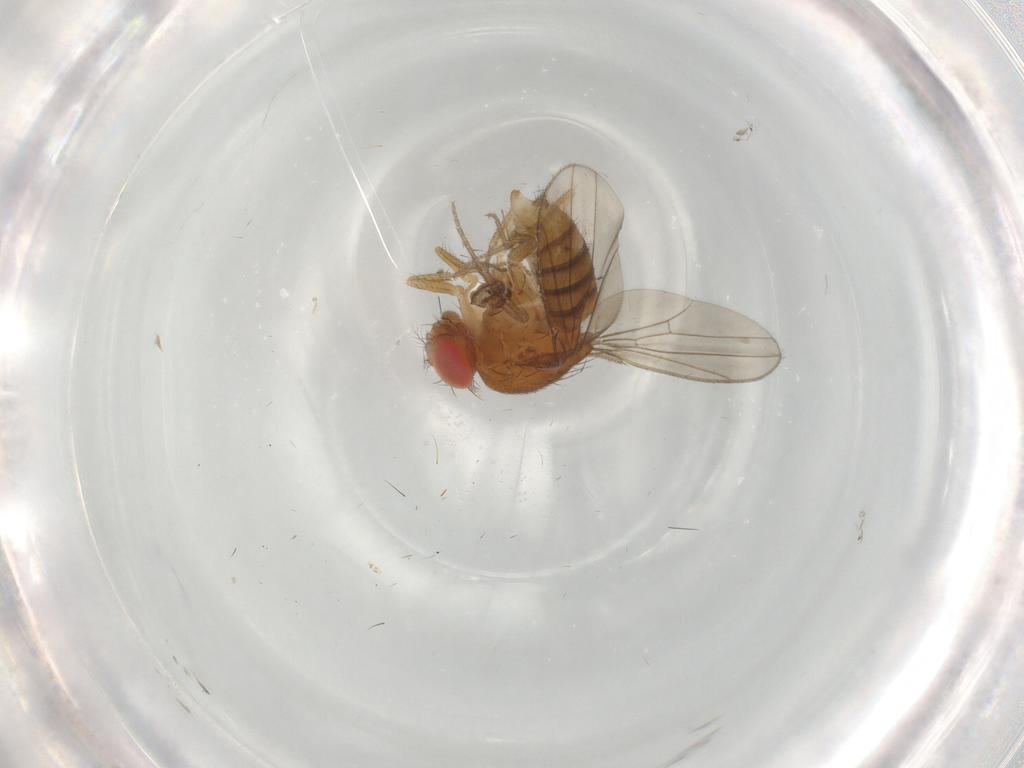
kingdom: Animalia
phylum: Arthropoda
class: Insecta
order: Diptera
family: Drosophilidae
